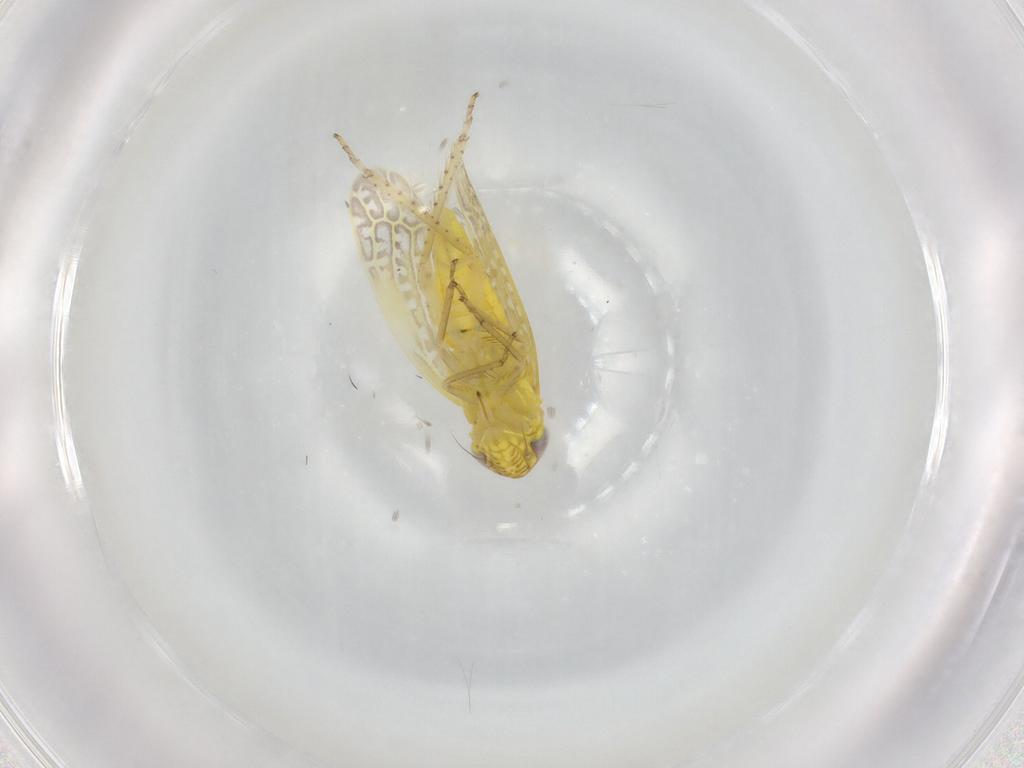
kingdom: Animalia
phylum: Arthropoda
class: Insecta
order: Hemiptera
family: Cicadellidae
